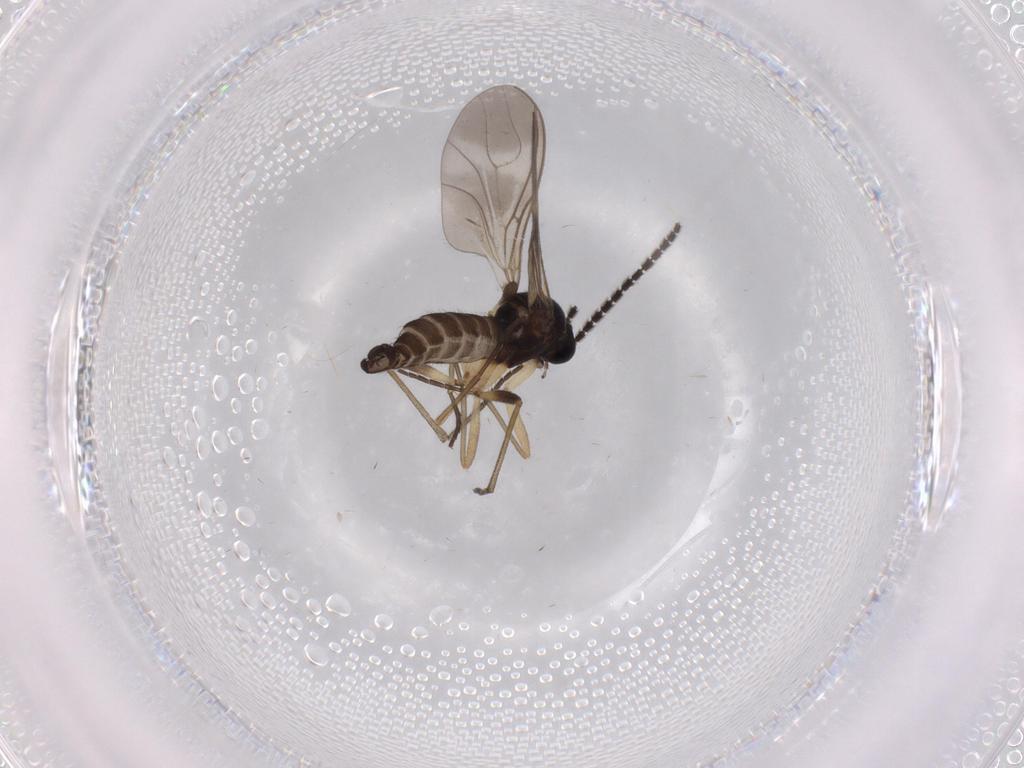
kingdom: Animalia
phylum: Arthropoda
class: Insecta
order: Diptera
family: Sciaridae
